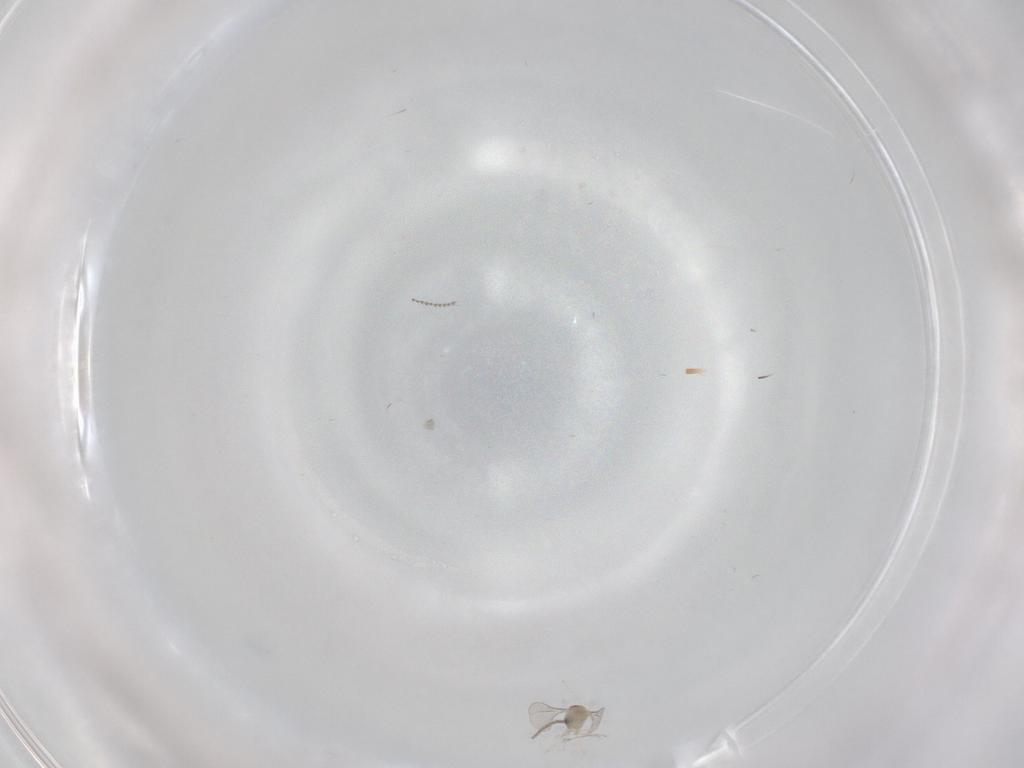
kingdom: Animalia
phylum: Arthropoda
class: Insecta
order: Diptera
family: Cecidomyiidae
